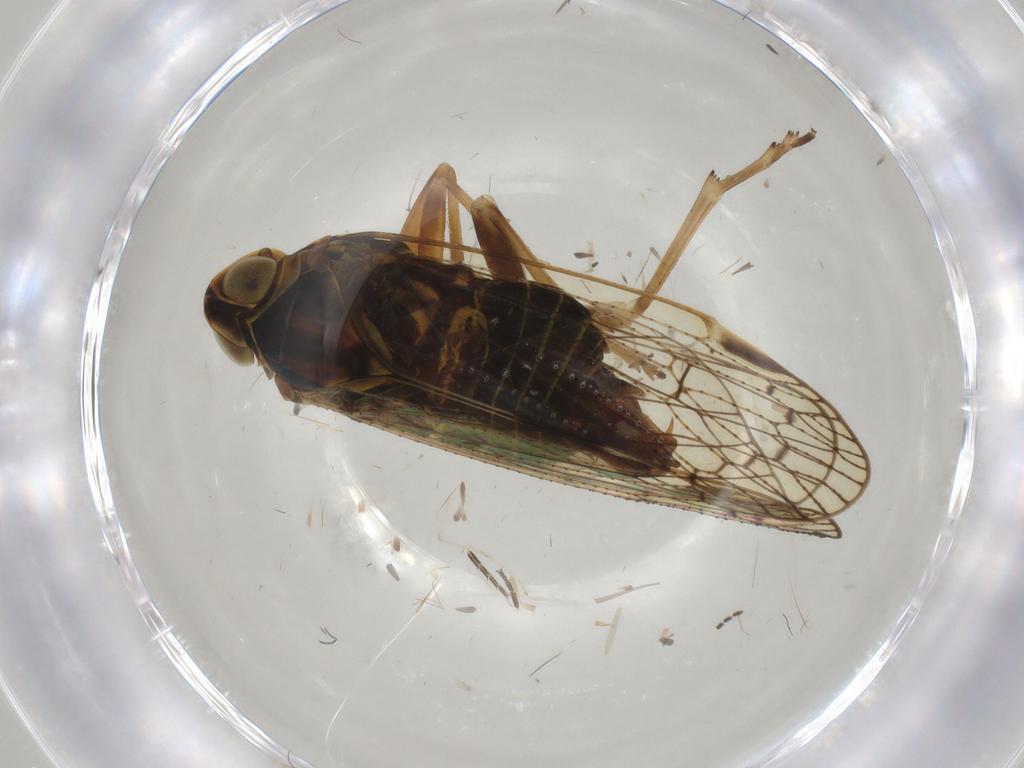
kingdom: Animalia
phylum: Arthropoda
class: Insecta
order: Hemiptera
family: Cixiidae
